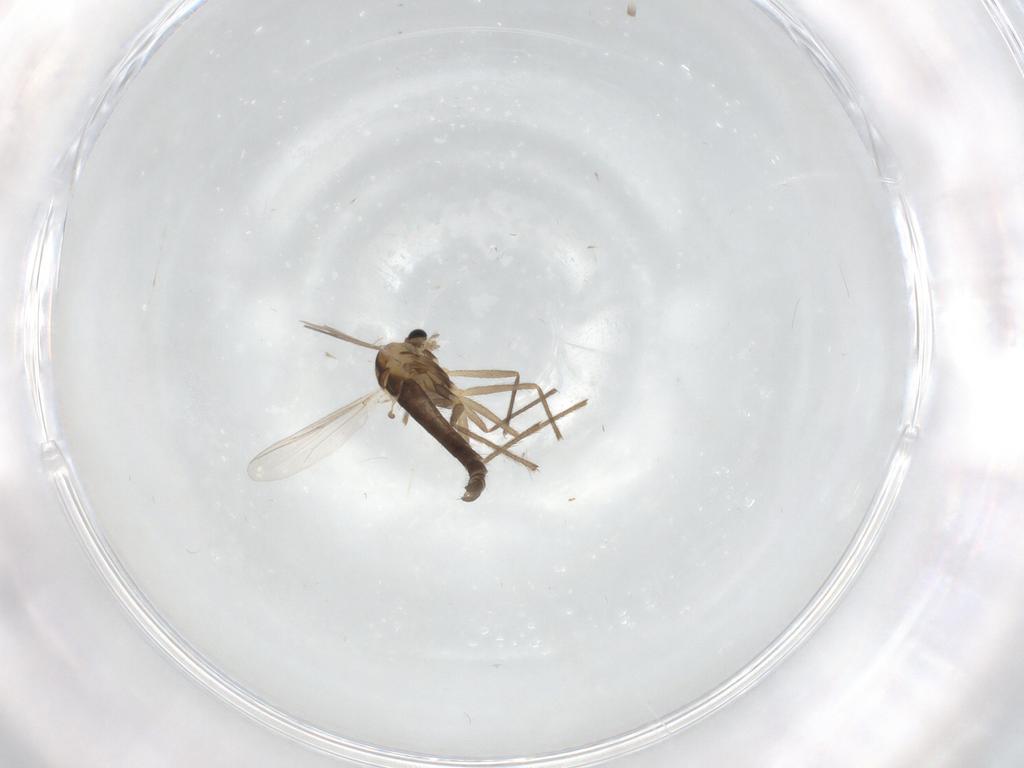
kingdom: Animalia
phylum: Arthropoda
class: Insecta
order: Diptera
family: Chironomidae
